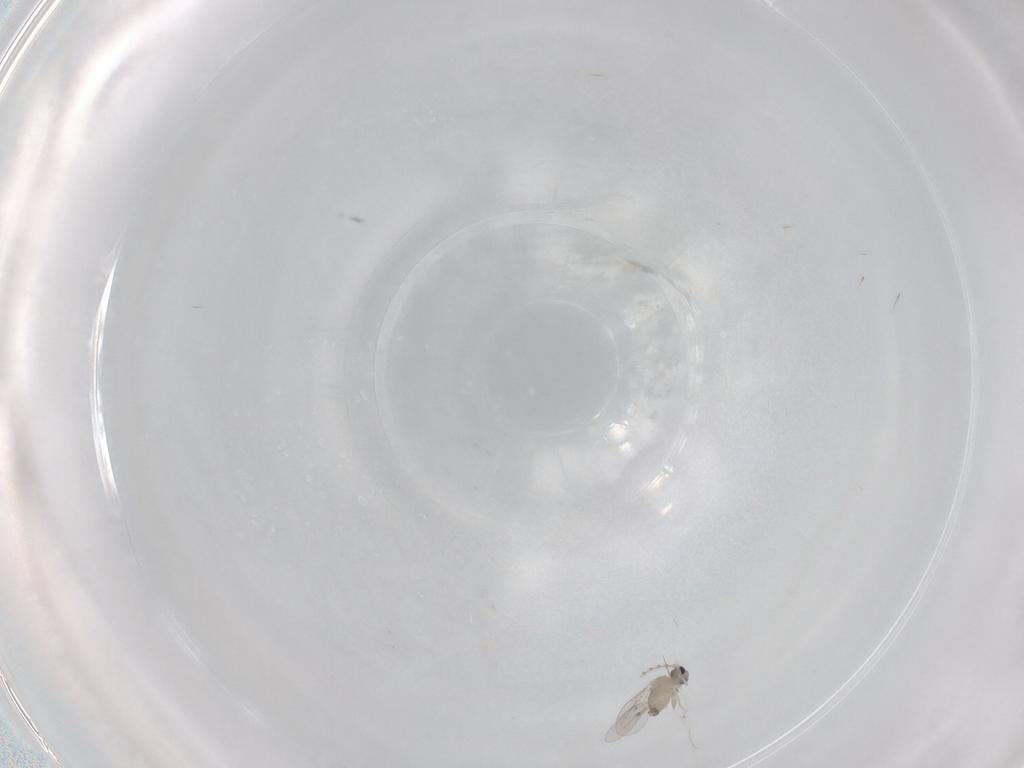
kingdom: Animalia
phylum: Arthropoda
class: Insecta
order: Diptera
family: Cecidomyiidae
